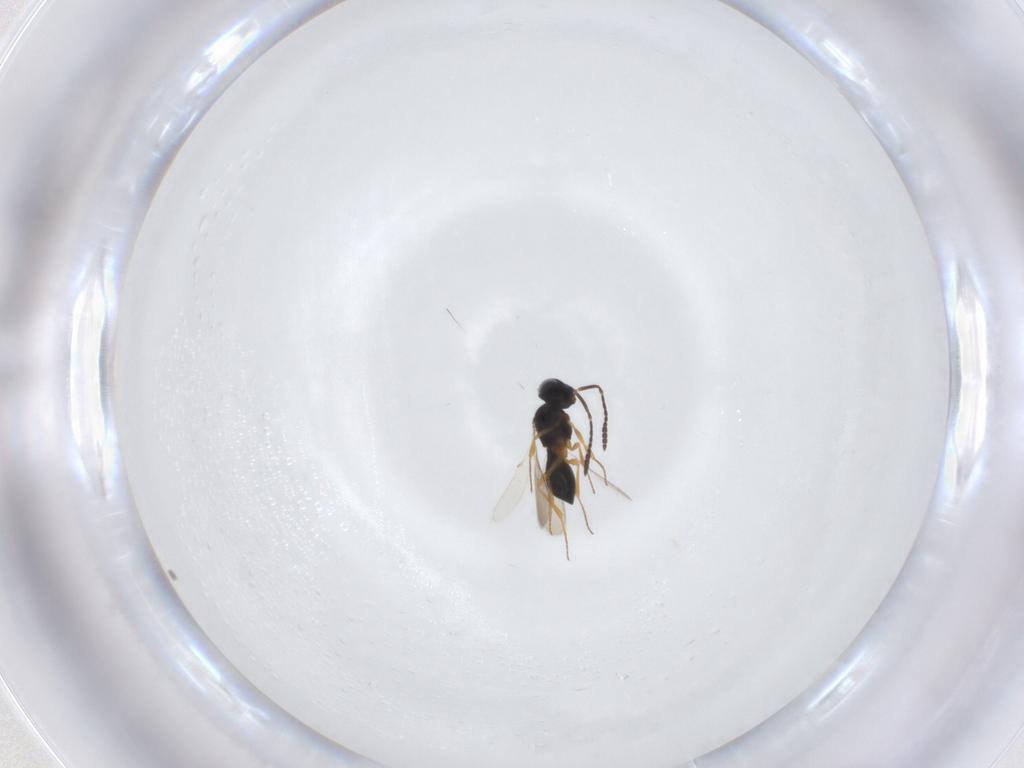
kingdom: Animalia
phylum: Arthropoda
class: Insecta
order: Hymenoptera
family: Scelionidae
